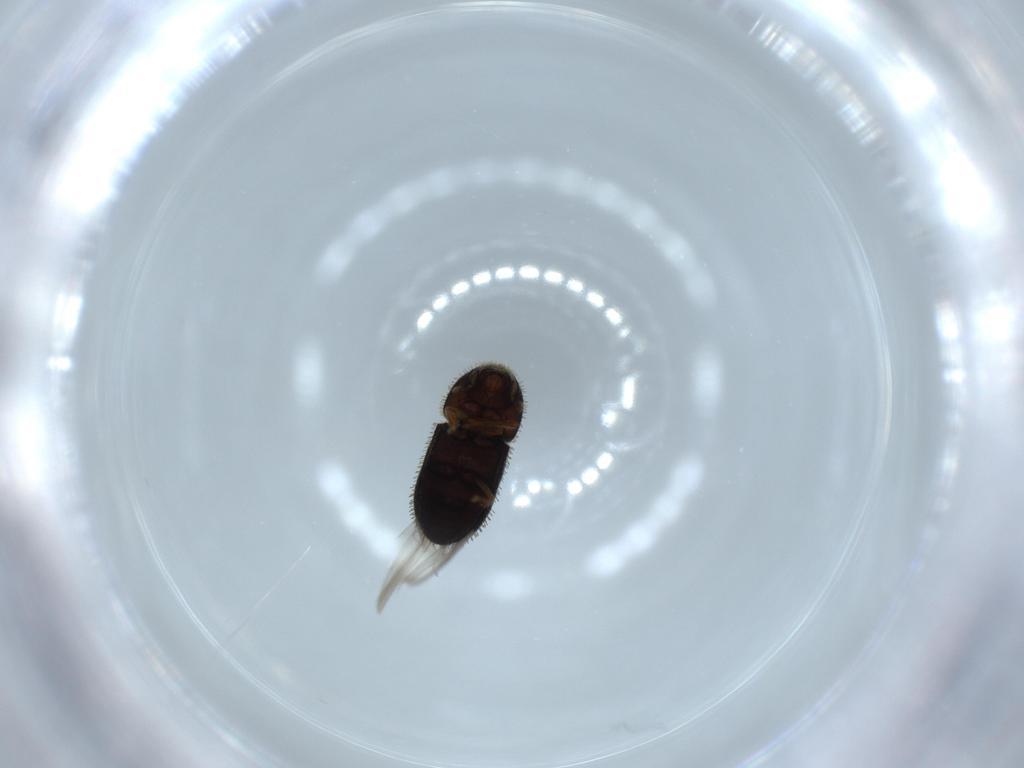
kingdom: Animalia
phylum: Arthropoda
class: Insecta
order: Coleoptera
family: Curculionidae
